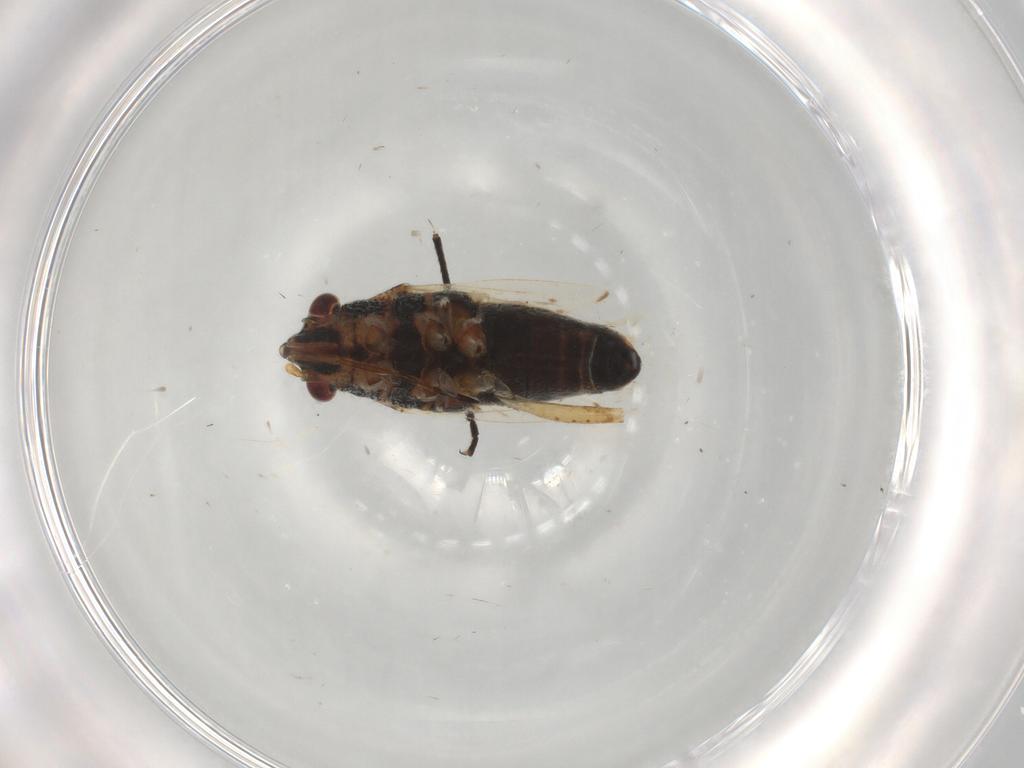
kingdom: Animalia
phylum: Arthropoda
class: Insecta
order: Hemiptera
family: Lygaeidae
